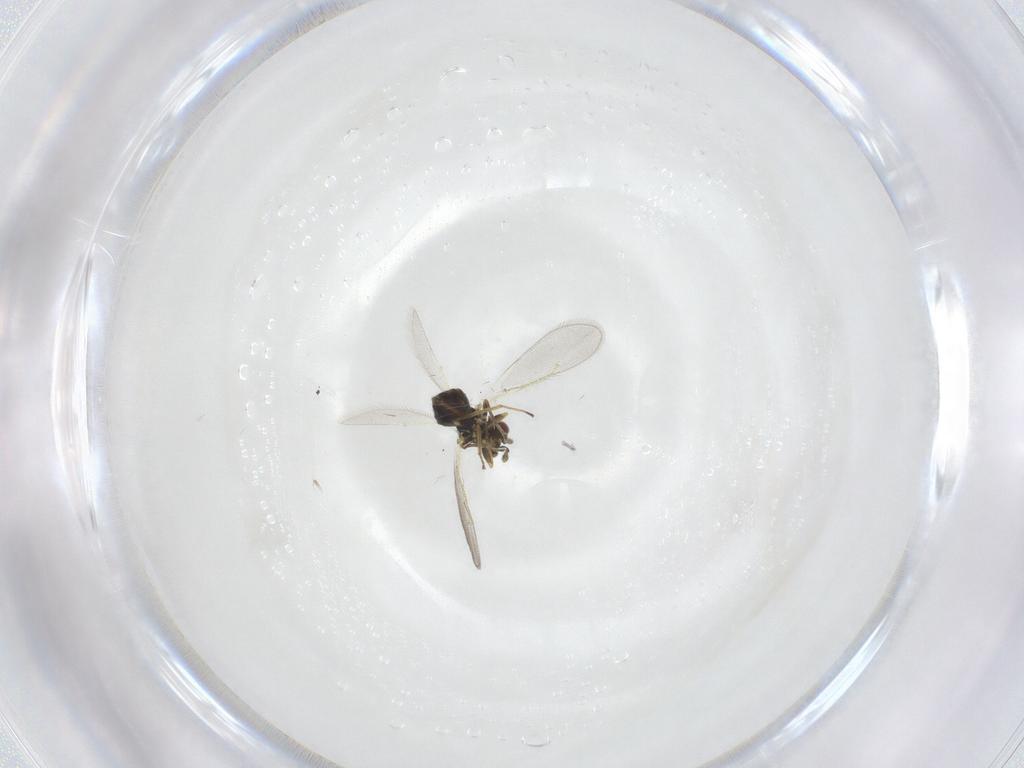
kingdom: Animalia
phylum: Arthropoda
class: Insecta
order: Hymenoptera
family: Eulophidae
